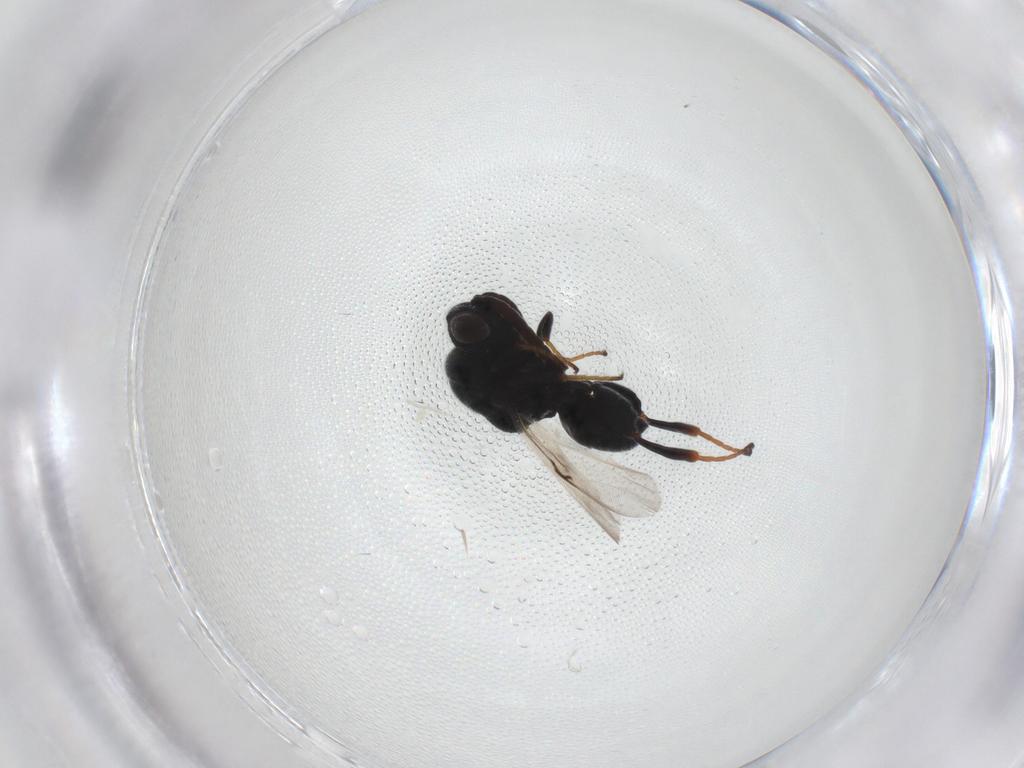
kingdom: Animalia
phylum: Arthropoda
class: Insecta
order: Hymenoptera
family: Chalcididae
